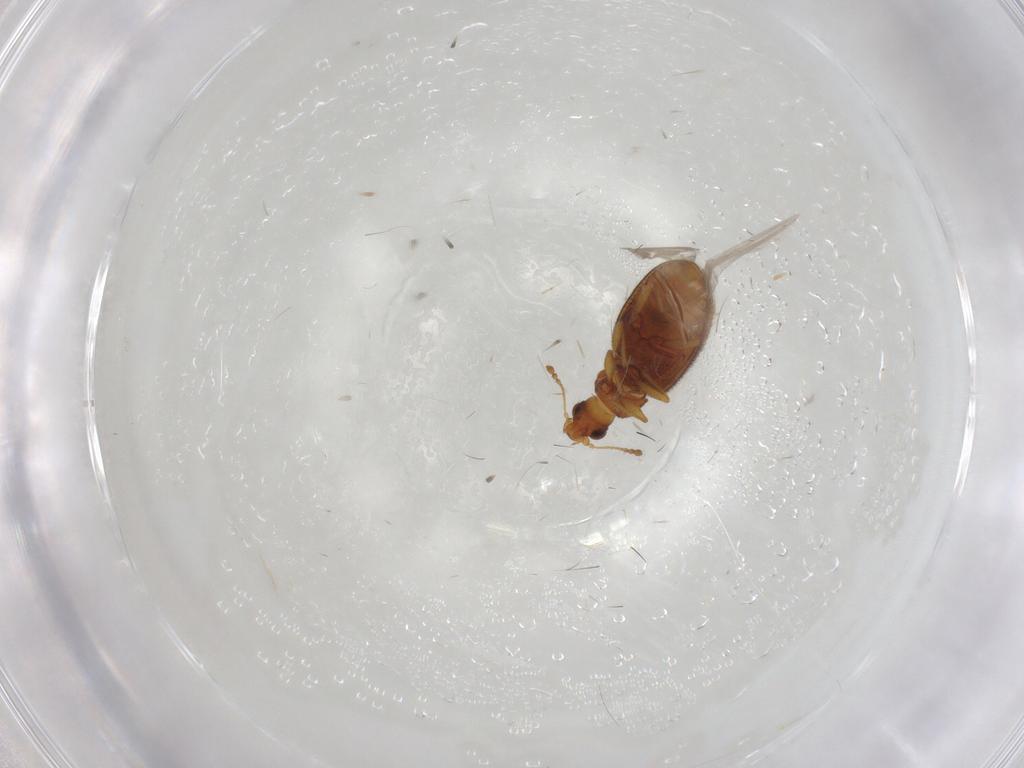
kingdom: Animalia
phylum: Arthropoda
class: Insecta
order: Coleoptera
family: Latridiidae
